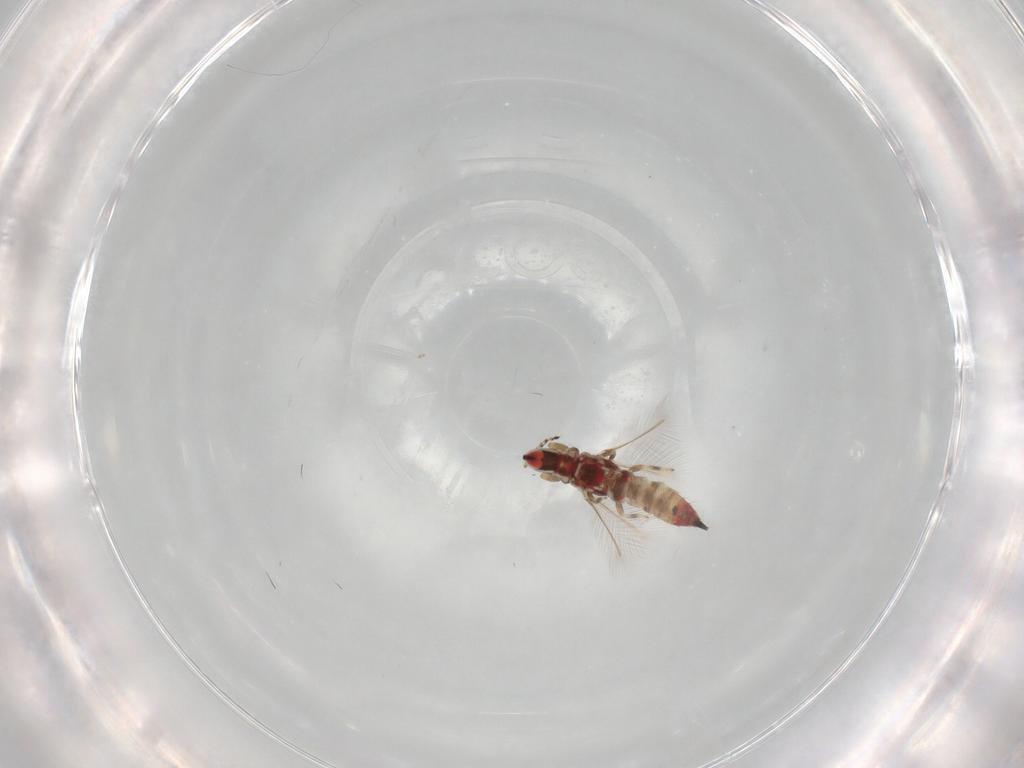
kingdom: Animalia
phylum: Arthropoda
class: Insecta
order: Thysanoptera
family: Phlaeothripidae
